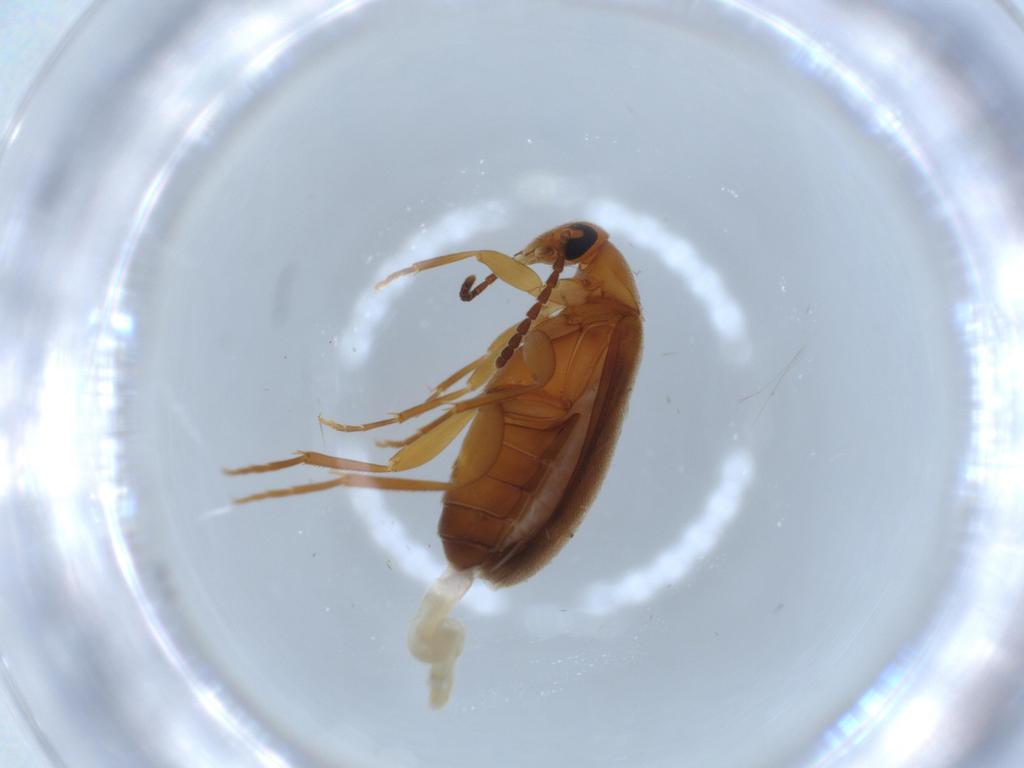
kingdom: Animalia
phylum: Arthropoda
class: Insecta
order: Coleoptera
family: Scraptiidae
